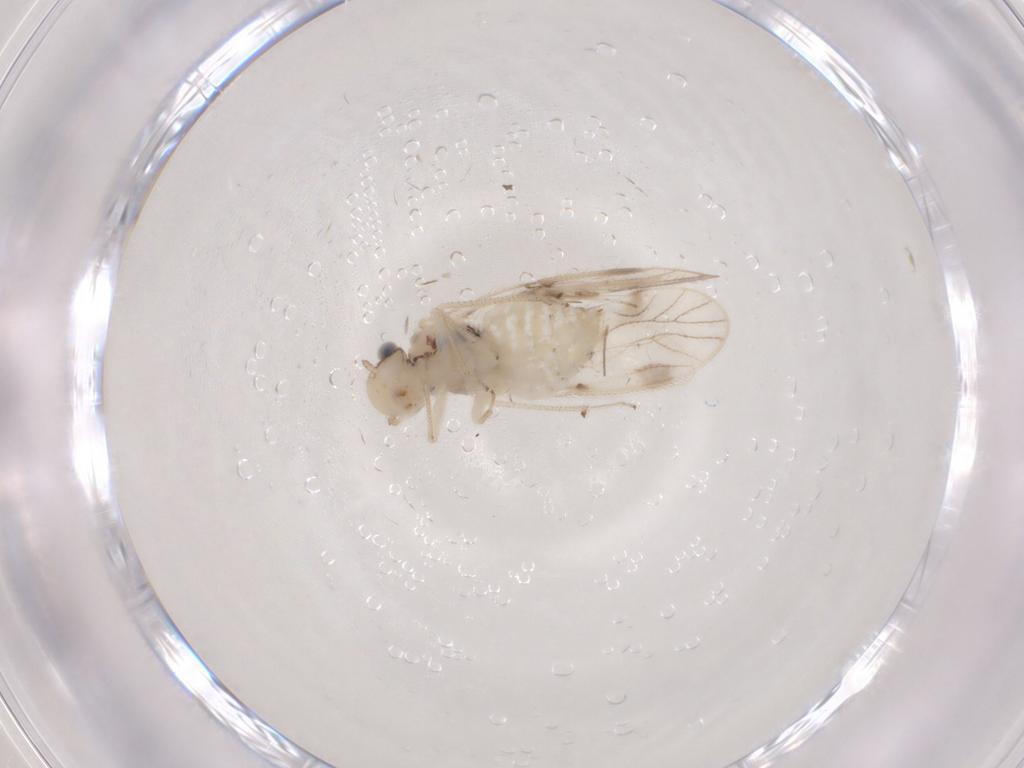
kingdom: Animalia
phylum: Arthropoda
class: Insecta
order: Psocodea
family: Caeciliusidae
